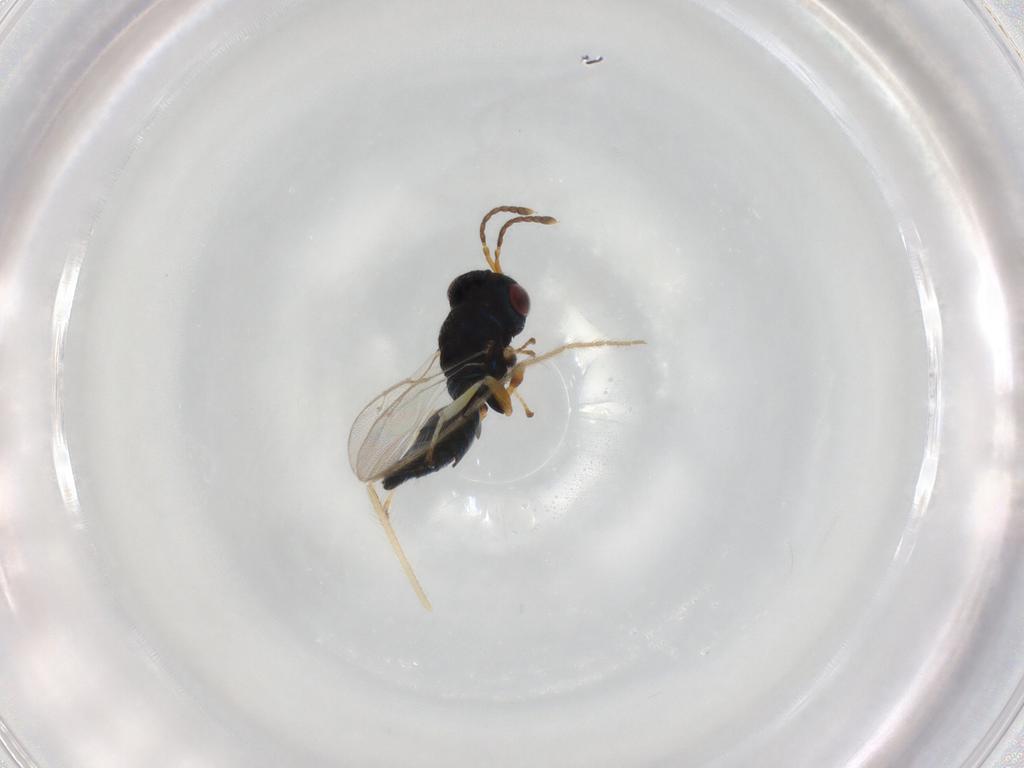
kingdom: Animalia
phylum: Arthropoda
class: Insecta
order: Hymenoptera
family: Pteromalidae
